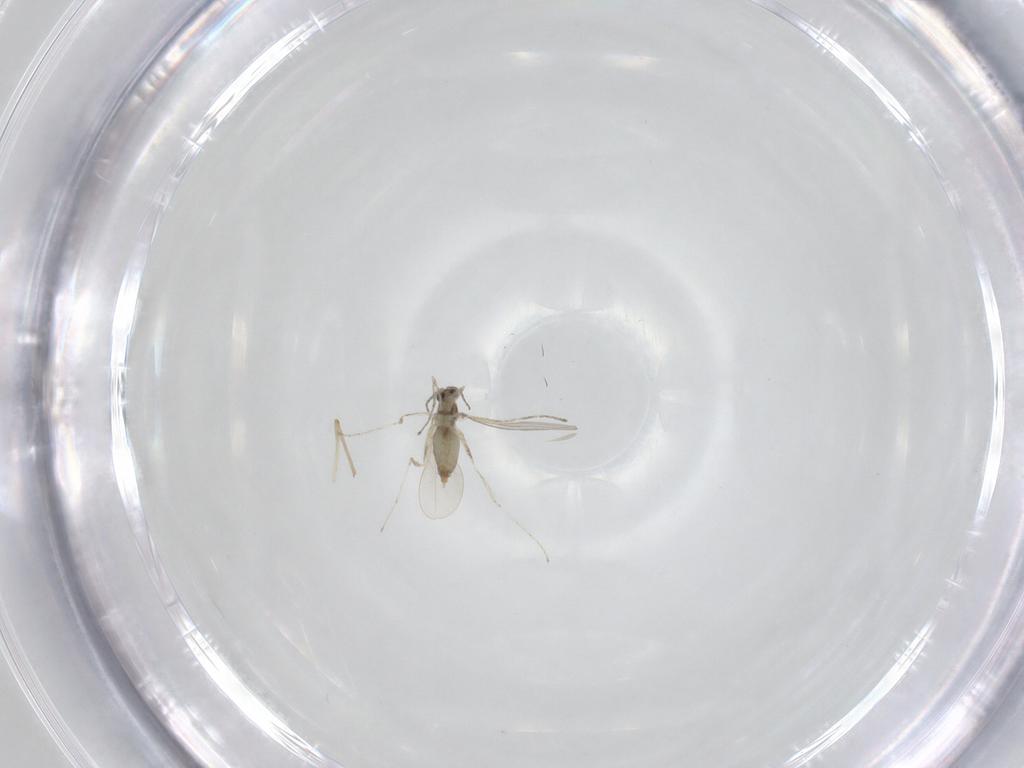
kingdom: Animalia
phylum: Arthropoda
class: Insecta
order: Diptera
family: Chironomidae
